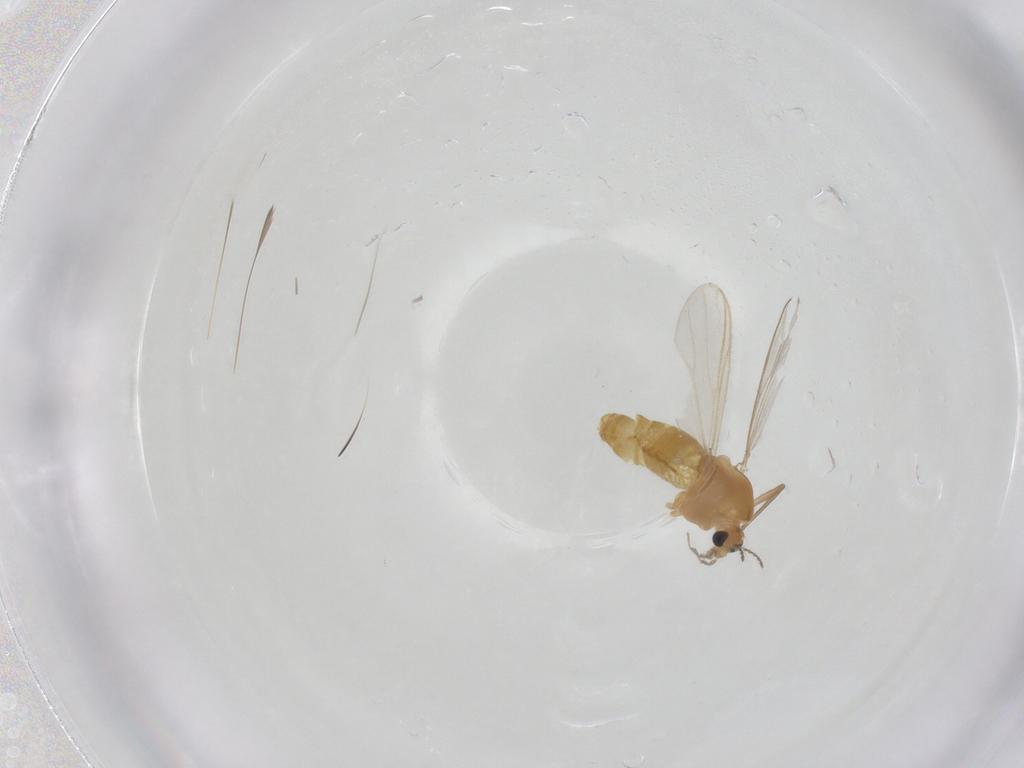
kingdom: Animalia
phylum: Arthropoda
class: Insecta
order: Diptera
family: Chironomidae
